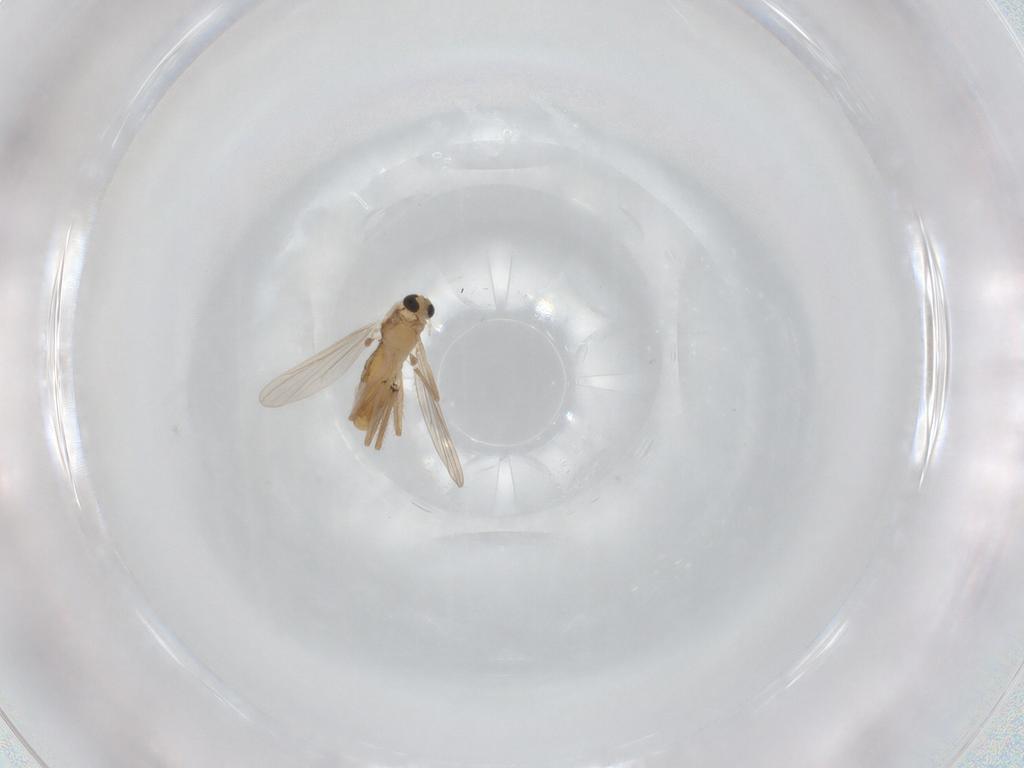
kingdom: Animalia
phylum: Arthropoda
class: Insecta
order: Diptera
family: Chironomidae
